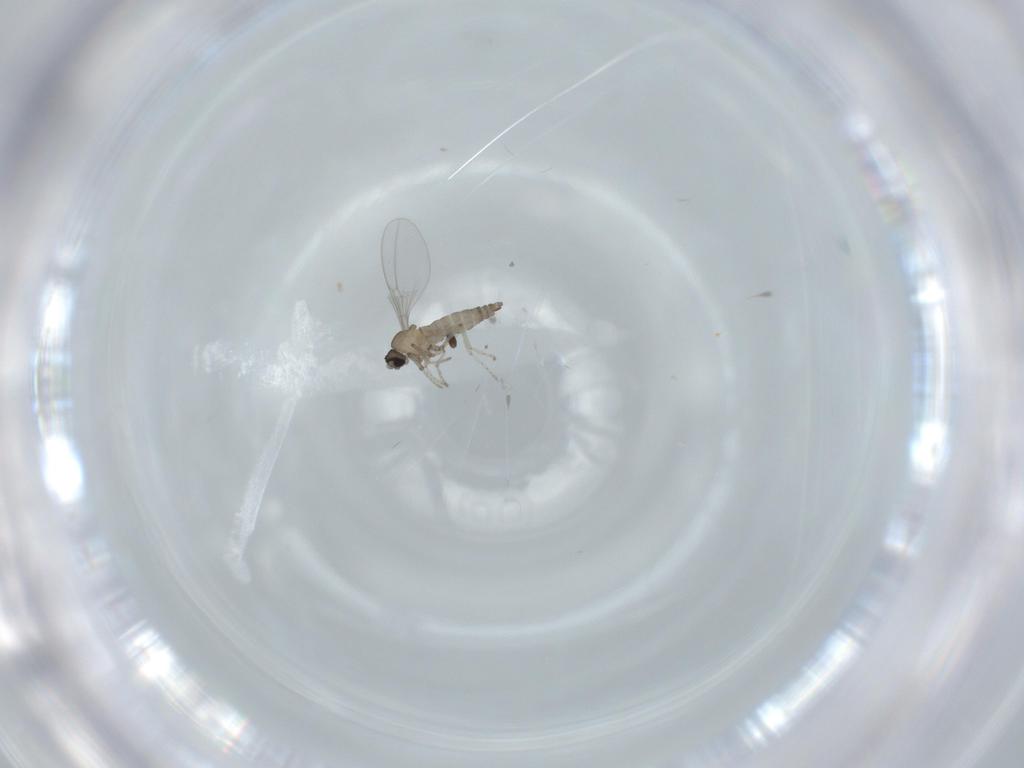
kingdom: Animalia
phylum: Arthropoda
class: Insecta
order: Diptera
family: Cecidomyiidae
